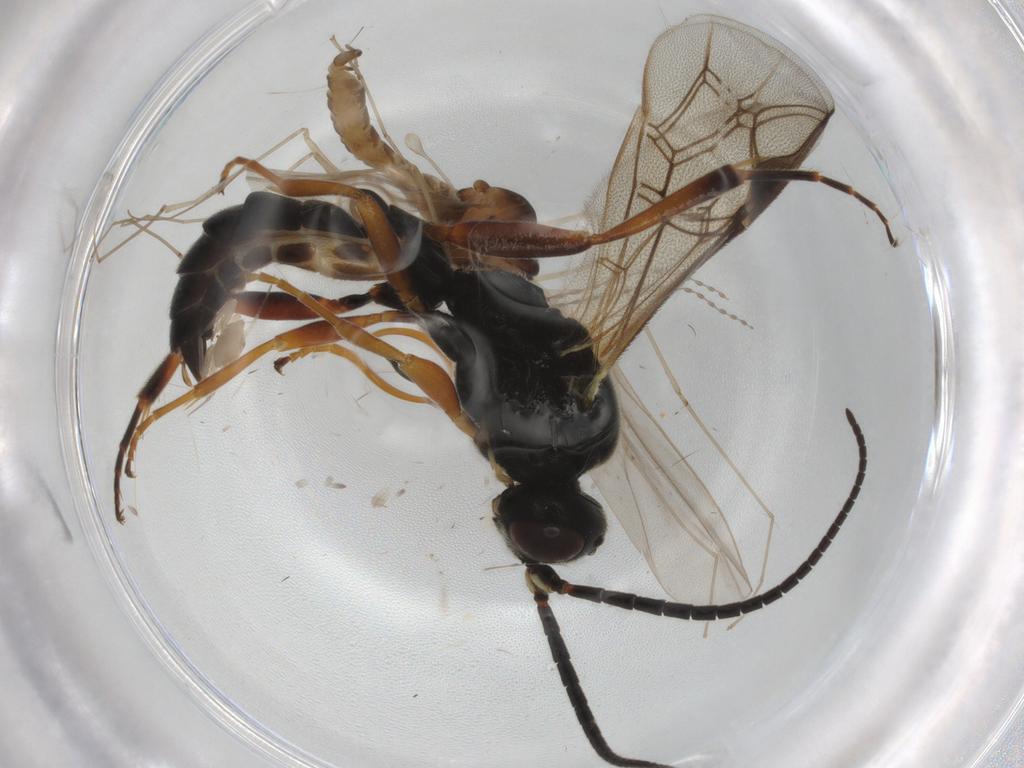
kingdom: Animalia
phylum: Arthropoda
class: Insecta
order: Diptera
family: Cecidomyiidae
